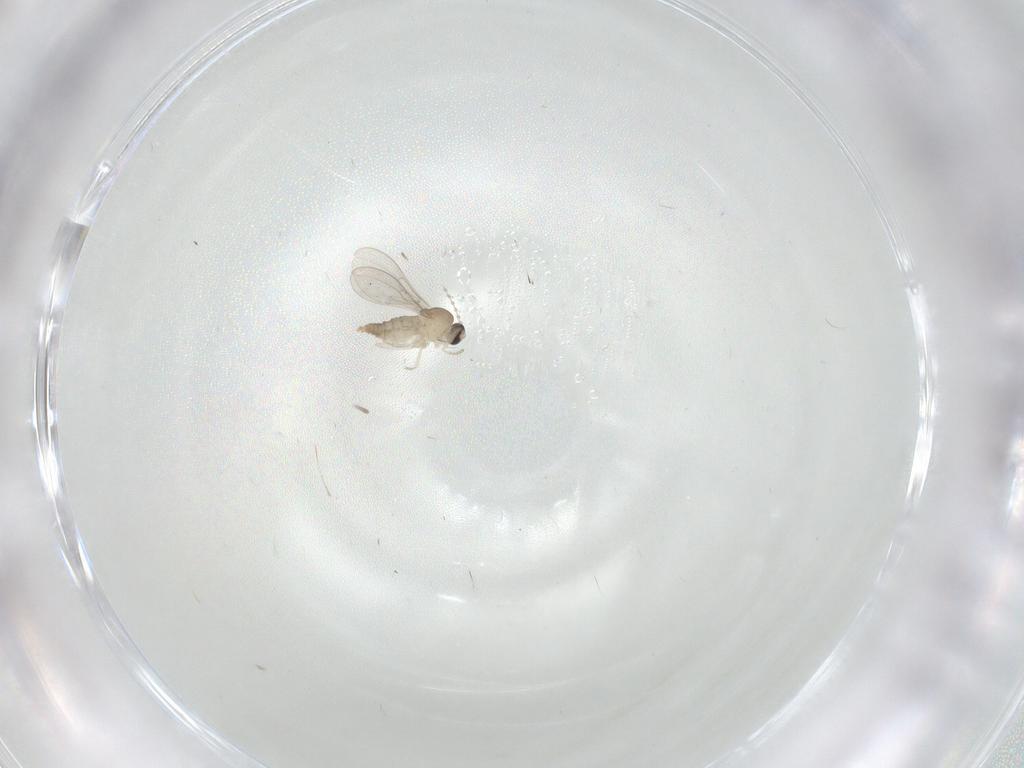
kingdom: Animalia
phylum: Arthropoda
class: Insecta
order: Diptera
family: Cecidomyiidae
